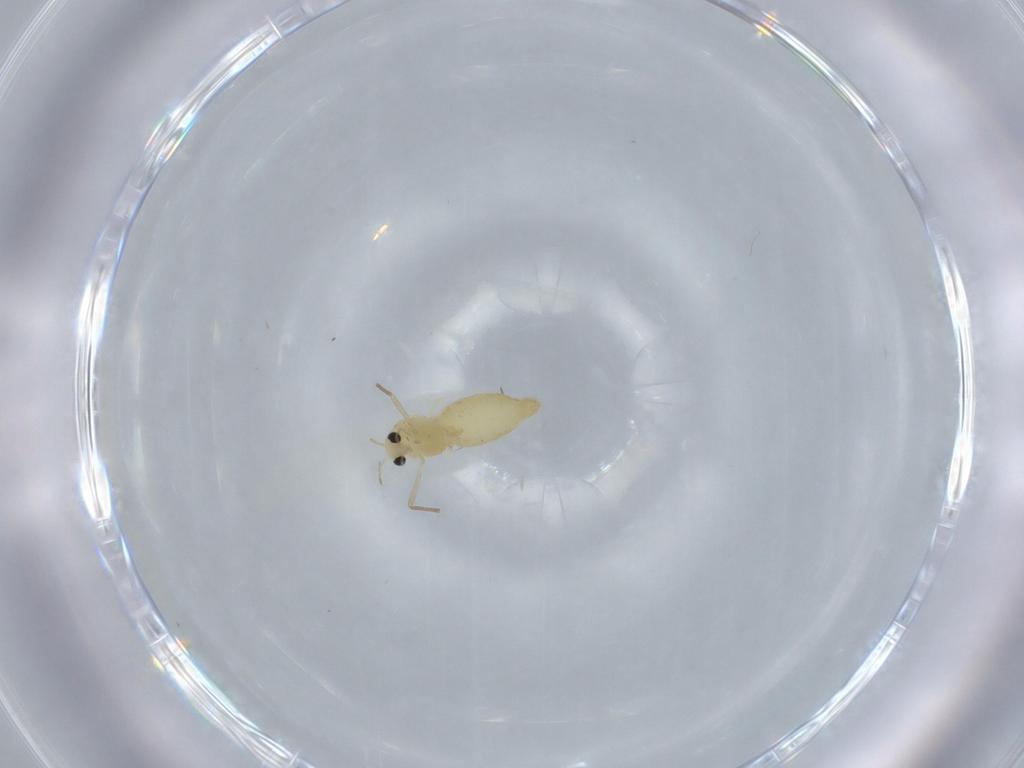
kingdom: Animalia
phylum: Arthropoda
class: Insecta
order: Diptera
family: Chironomidae
